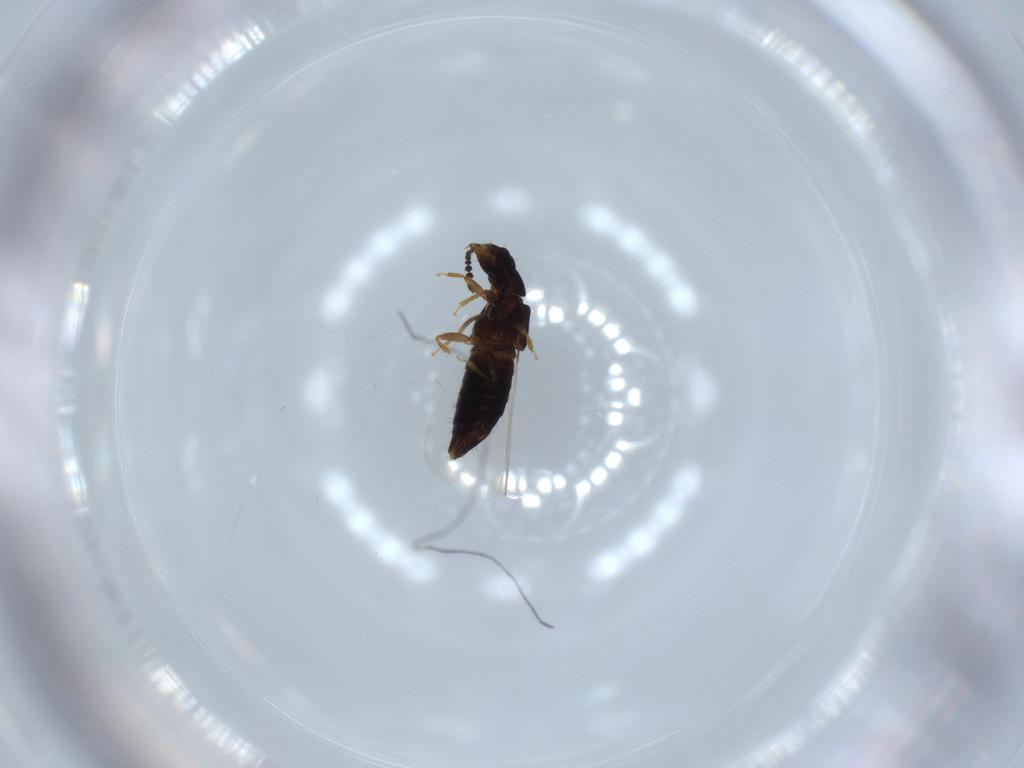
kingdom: Animalia
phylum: Arthropoda
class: Insecta
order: Coleoptera
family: Staphylinidae
